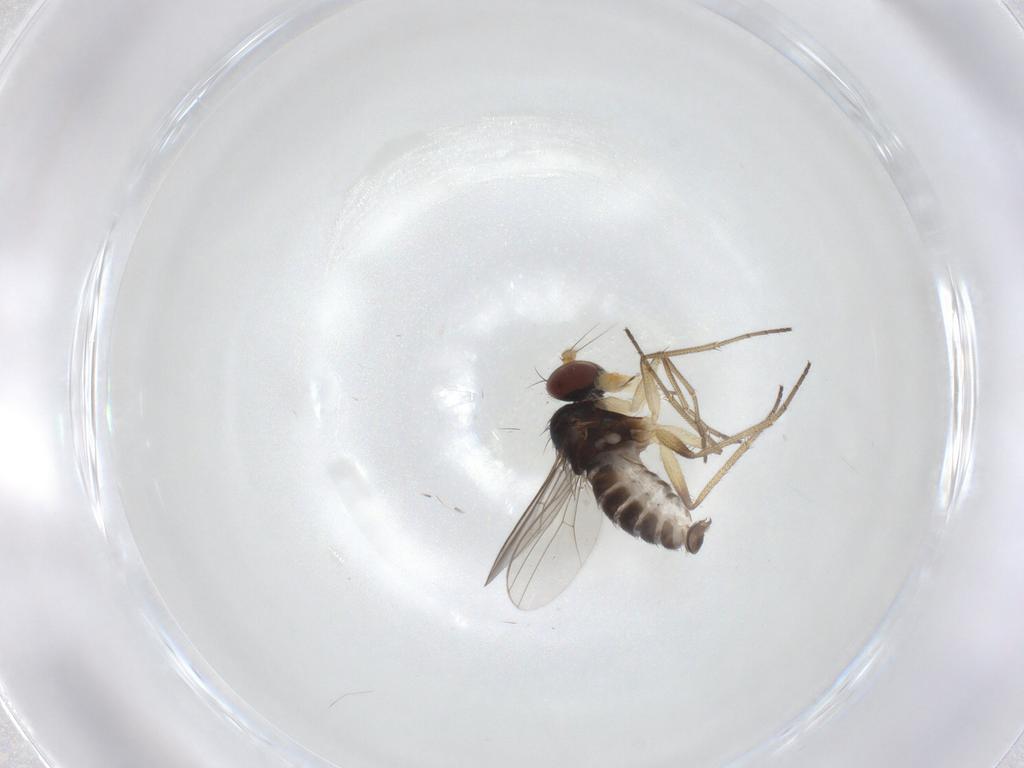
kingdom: Animalia
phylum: Arthropoda
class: Insecta
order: Diptera
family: Dolichopodidae
